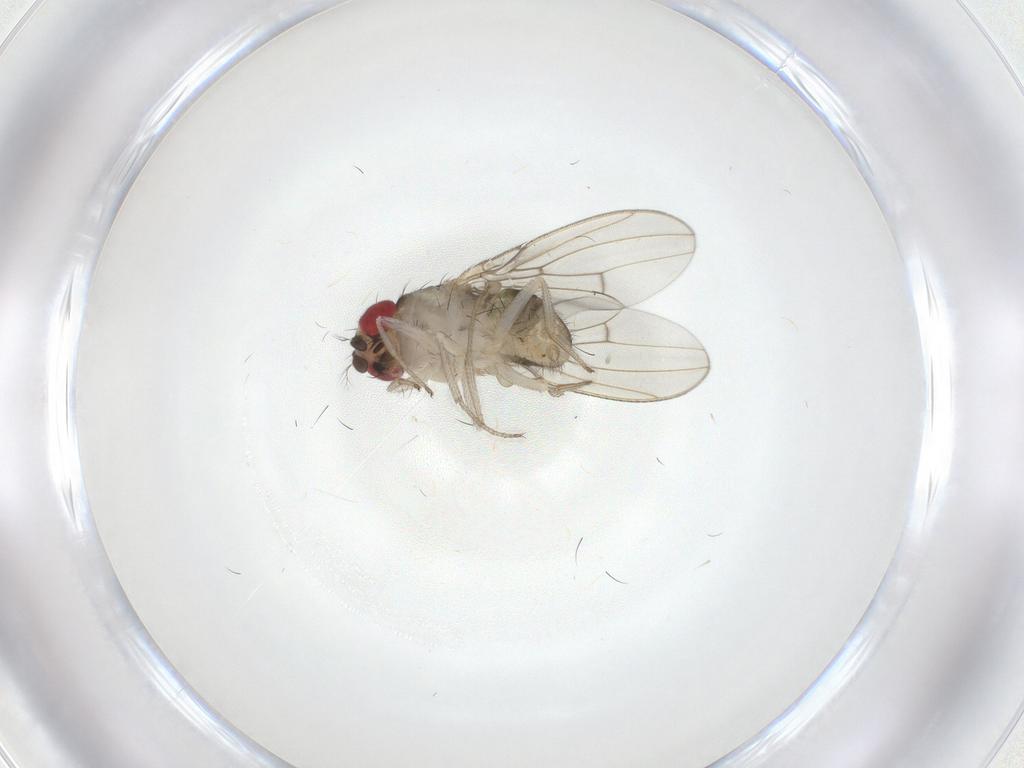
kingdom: Animalia
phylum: Arthropoda
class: Insecta
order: Diptera
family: Drosophilidae
